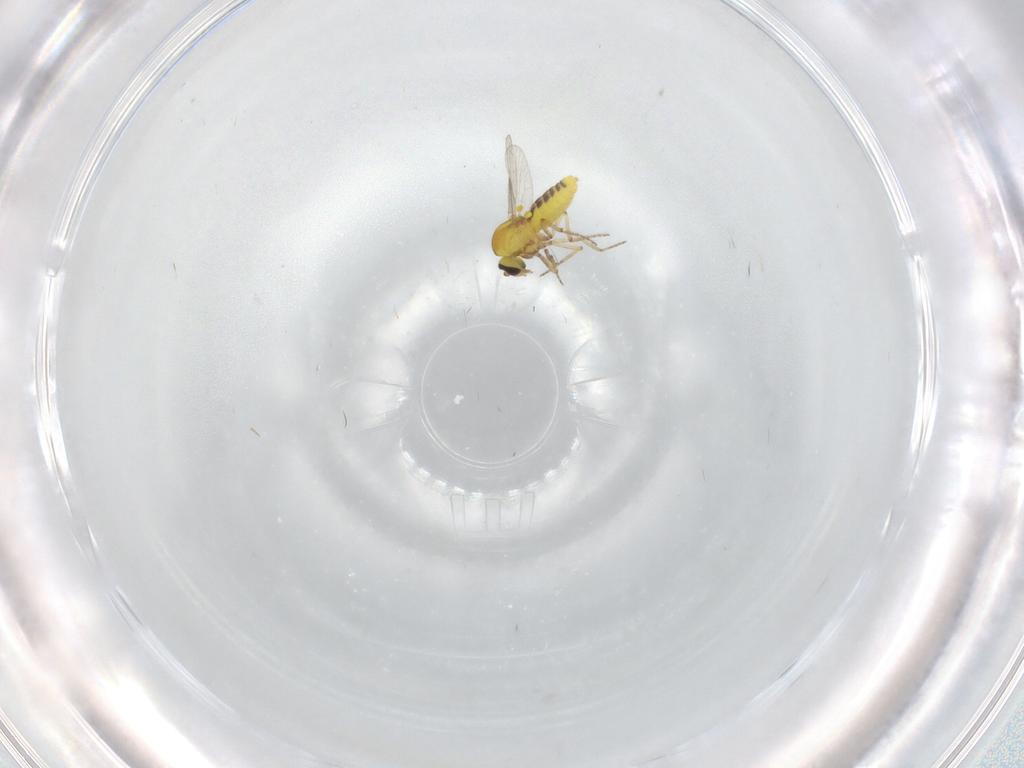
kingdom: Animalia
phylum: Arthropoda
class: Insecta
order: Diptera
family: Ceratopogonidae
